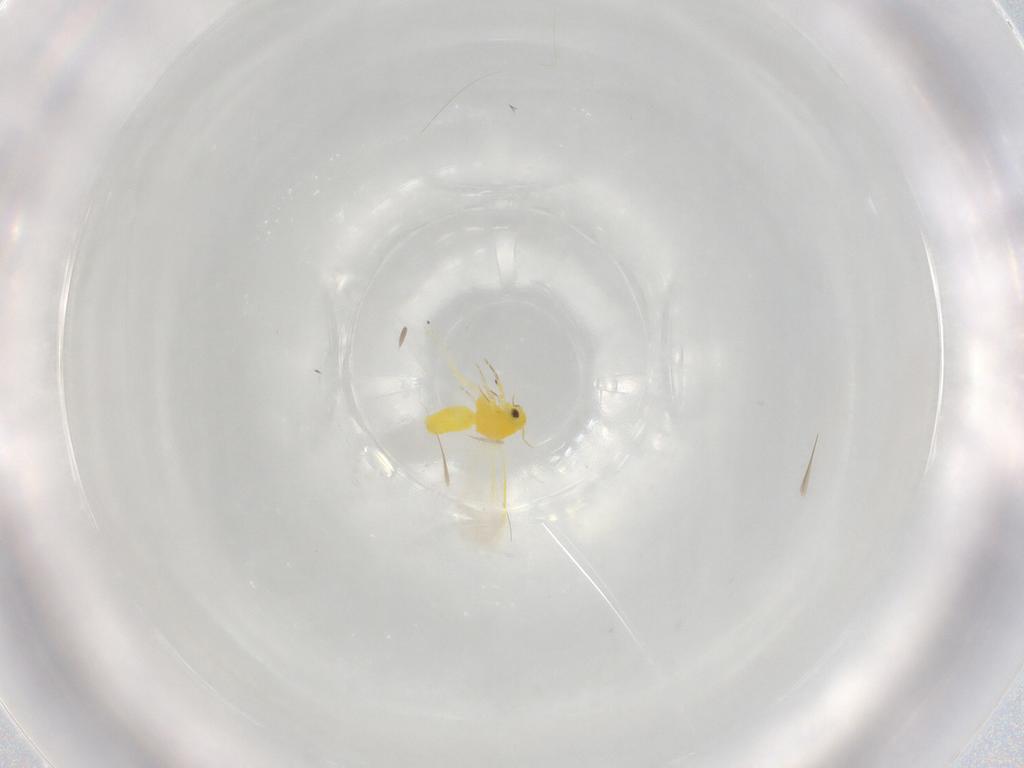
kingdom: Animalia
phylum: Arthropoda
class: Insecta
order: Hemiptera
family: Aleyrodidae
